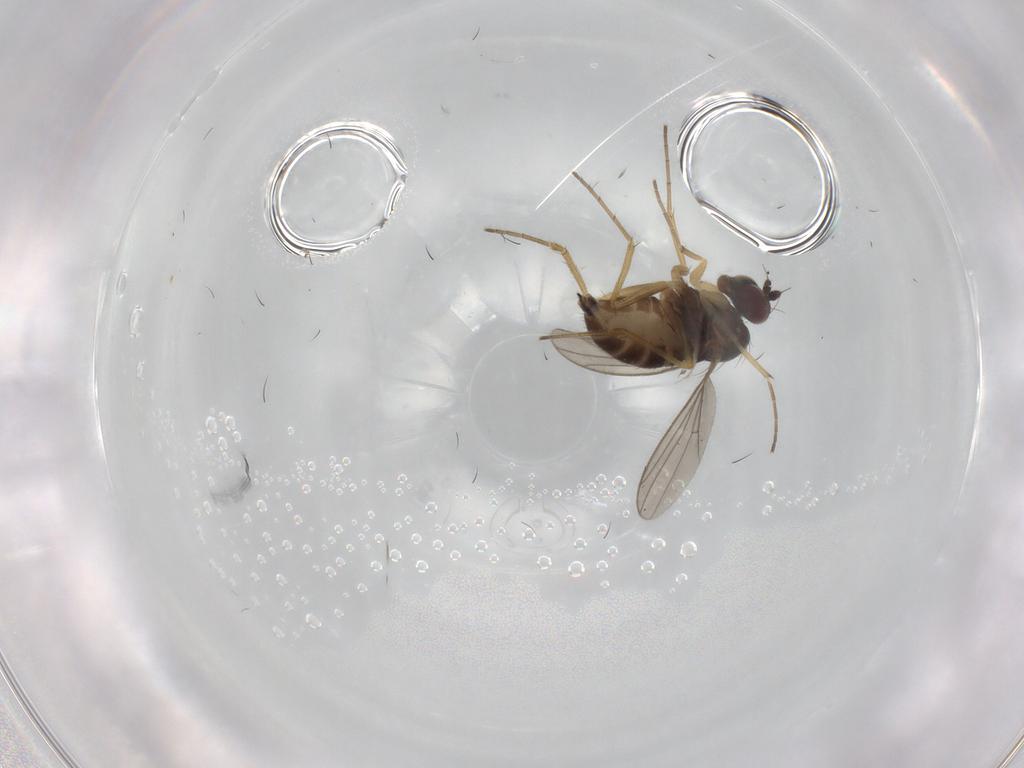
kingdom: Animalia
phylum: Arthropoda
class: Insecta
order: Diptera
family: Dolichopodidae
